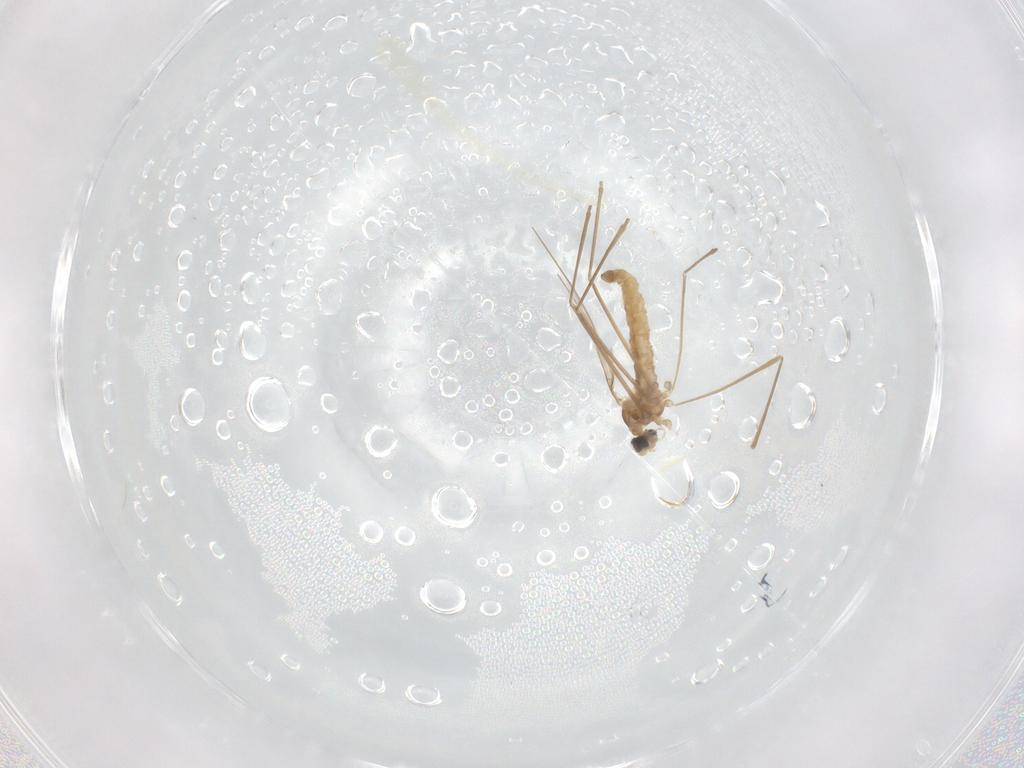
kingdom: Animalia
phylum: Arthropoda
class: Insecta
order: Diptera
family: Cecidomyiidae
